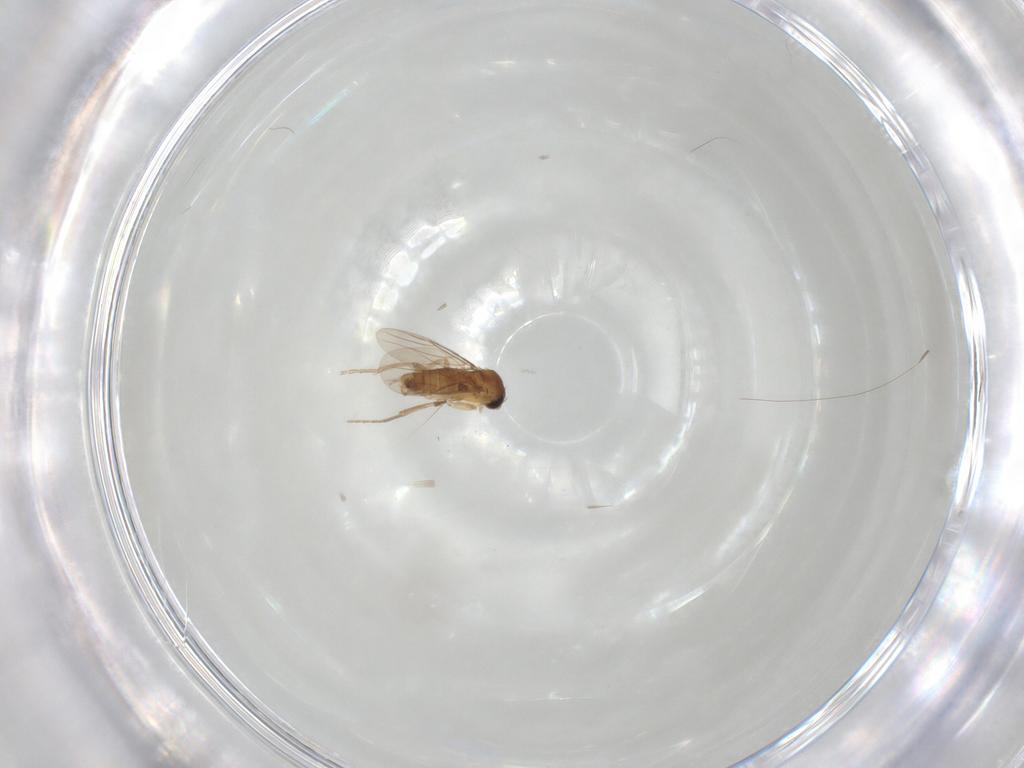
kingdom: Animalia
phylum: Arthropoda
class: Insecta
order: Diptera
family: Phoridae
